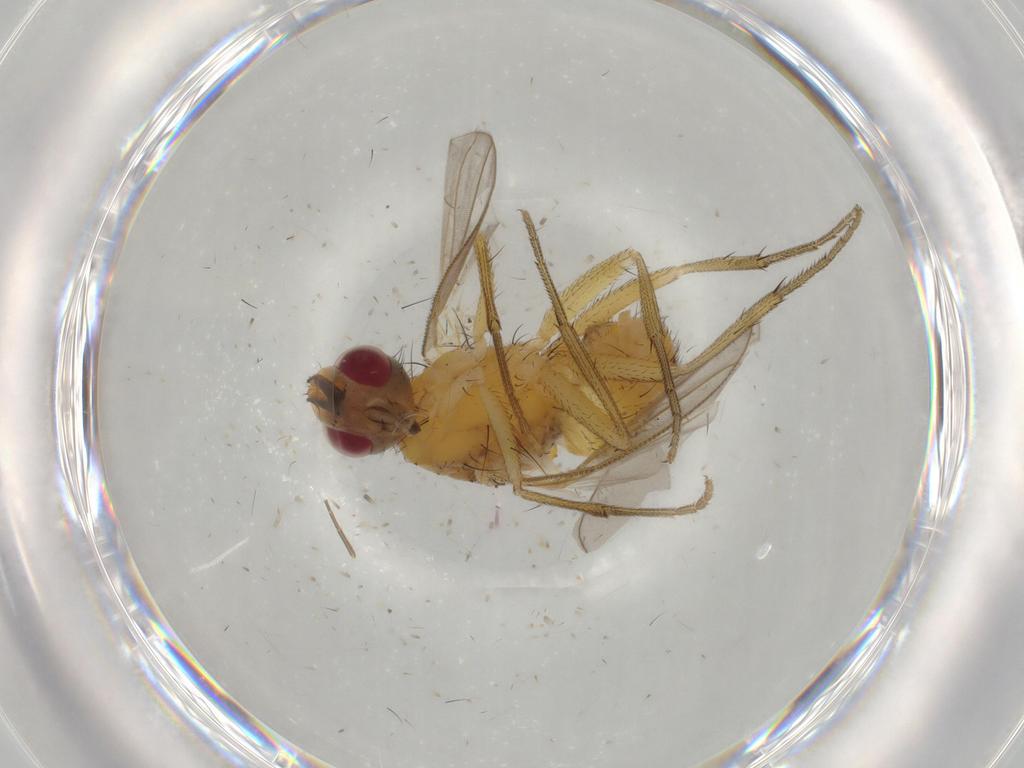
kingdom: Animalia
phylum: Arthropoda
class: Insecta
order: Diptera
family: Muscidae
